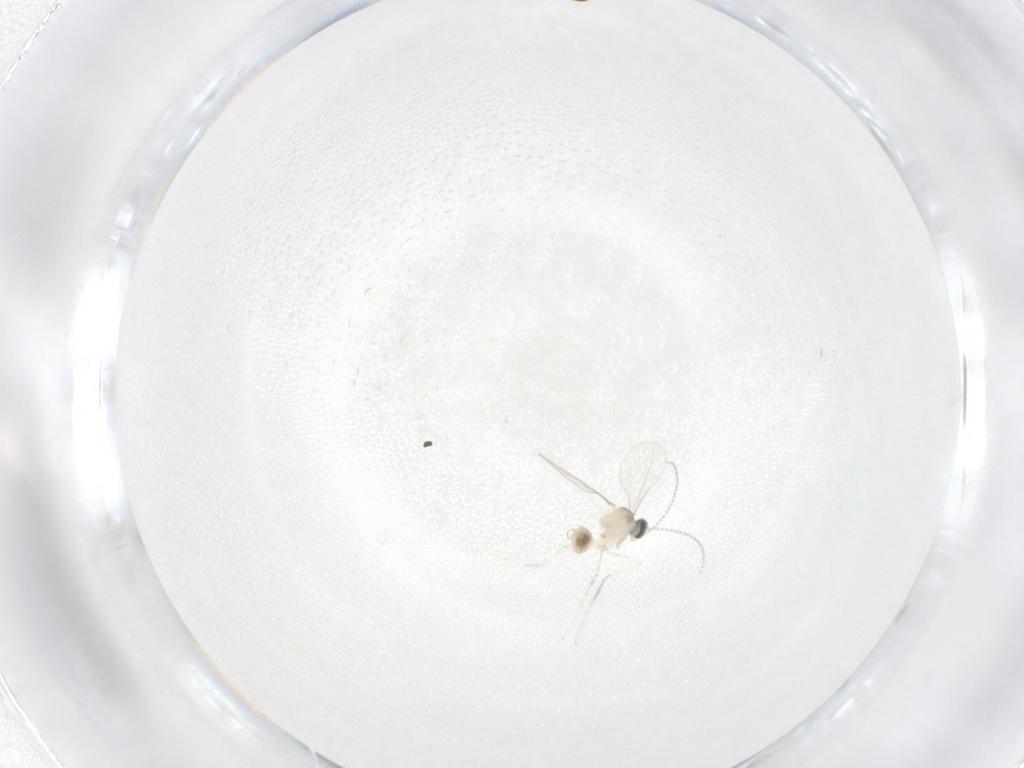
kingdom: Animalia
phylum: Arthropoda
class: Insecta
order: Diptera
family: Cecidomyiidae
